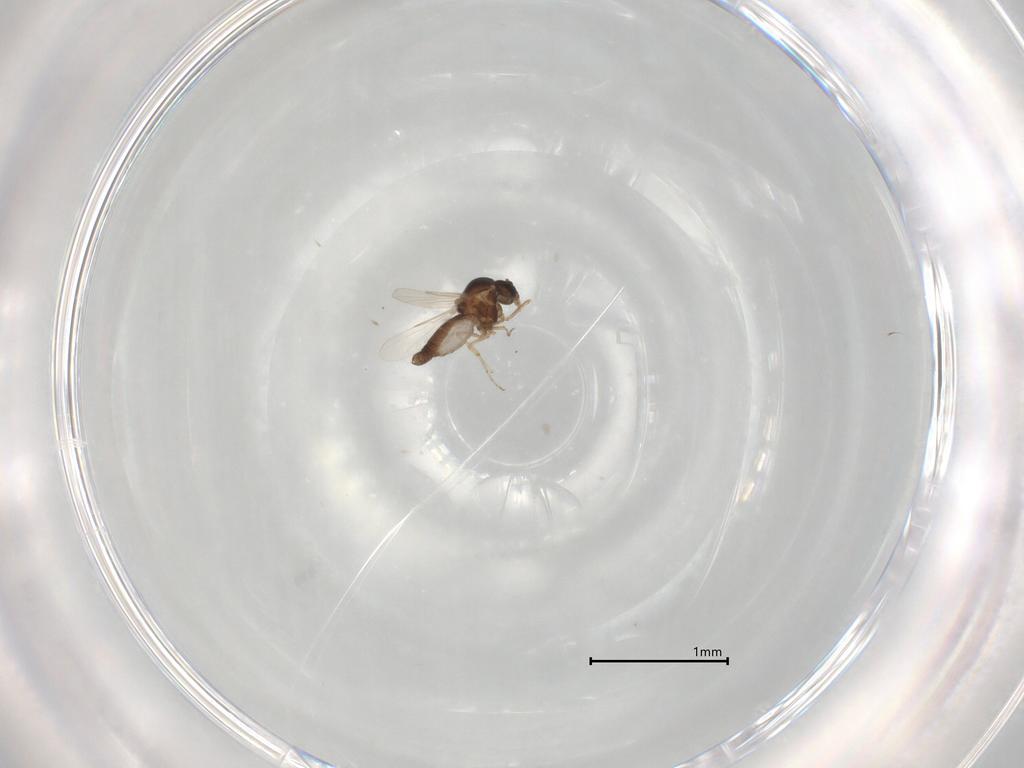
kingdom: Animalia
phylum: Arthropoda
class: Insecta
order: Diptera
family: Ceratopogonidae
